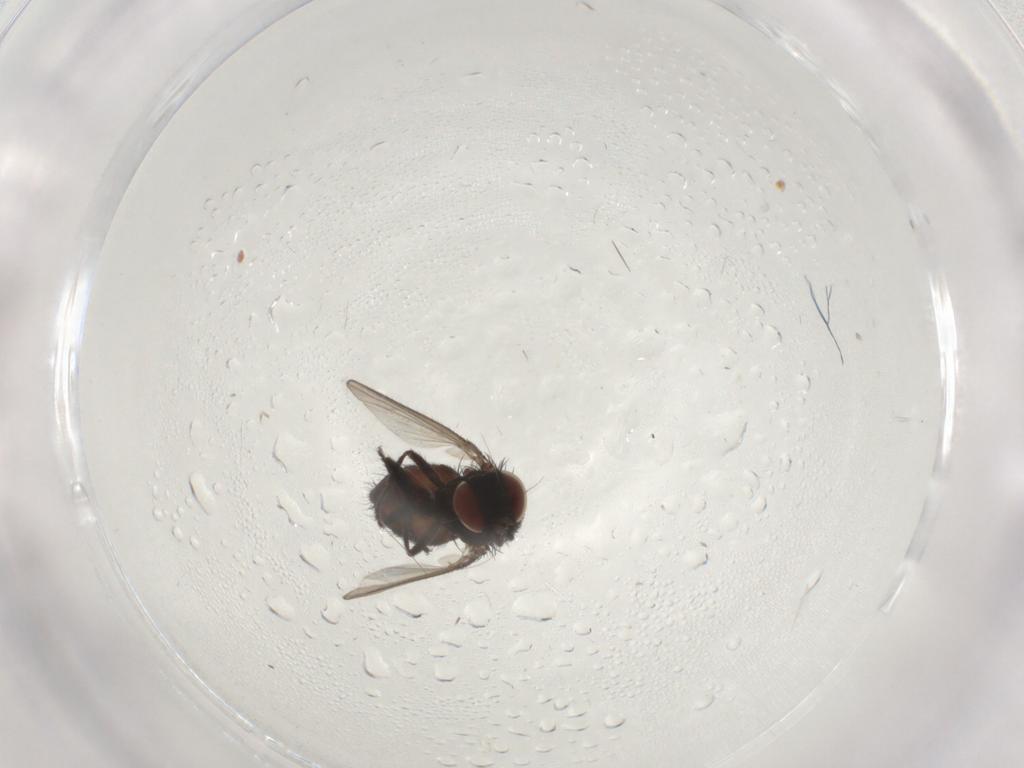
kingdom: Animalia
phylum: Arthropoda
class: Insecta
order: Diptera
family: Milichiidae
